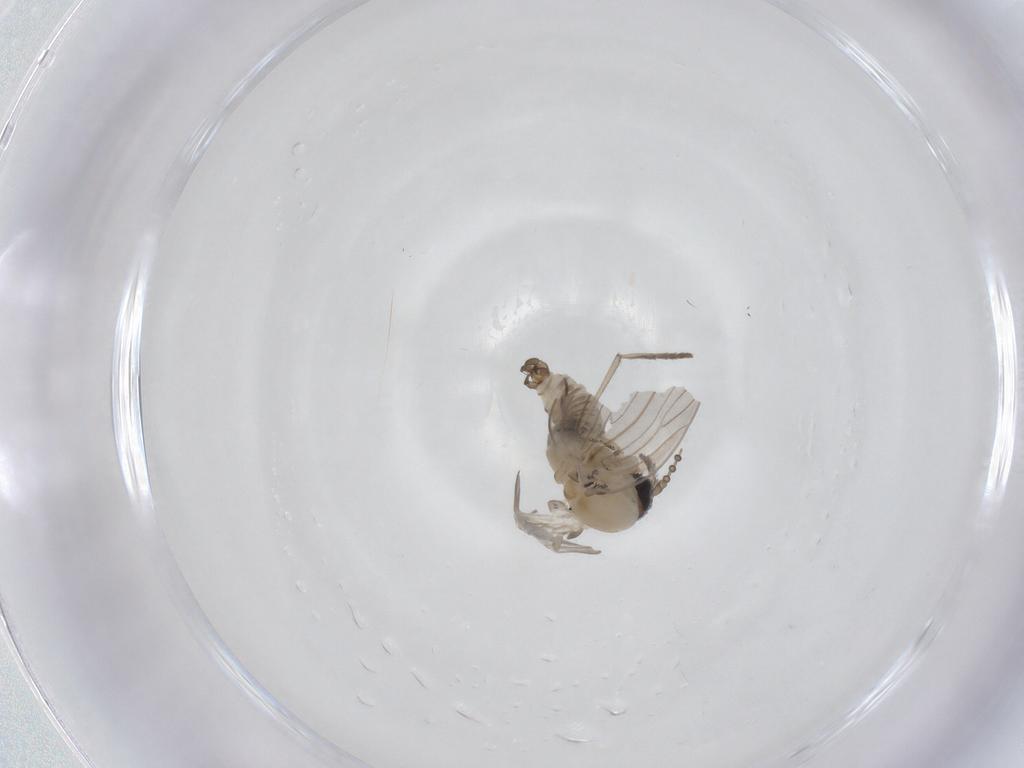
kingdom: Animalia
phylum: Arthropoda
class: Insecta
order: Diptera
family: Psychodidae
